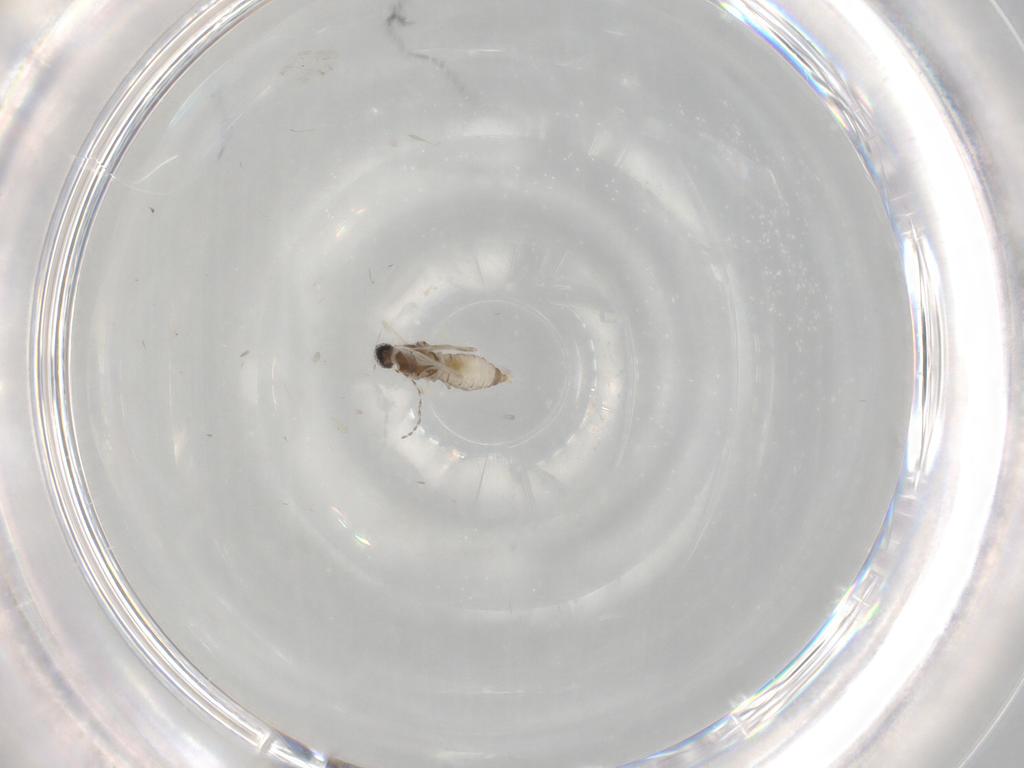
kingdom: Animalia
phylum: Arthropoda
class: Insecta
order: Diptera
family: Cecidomyiidae
